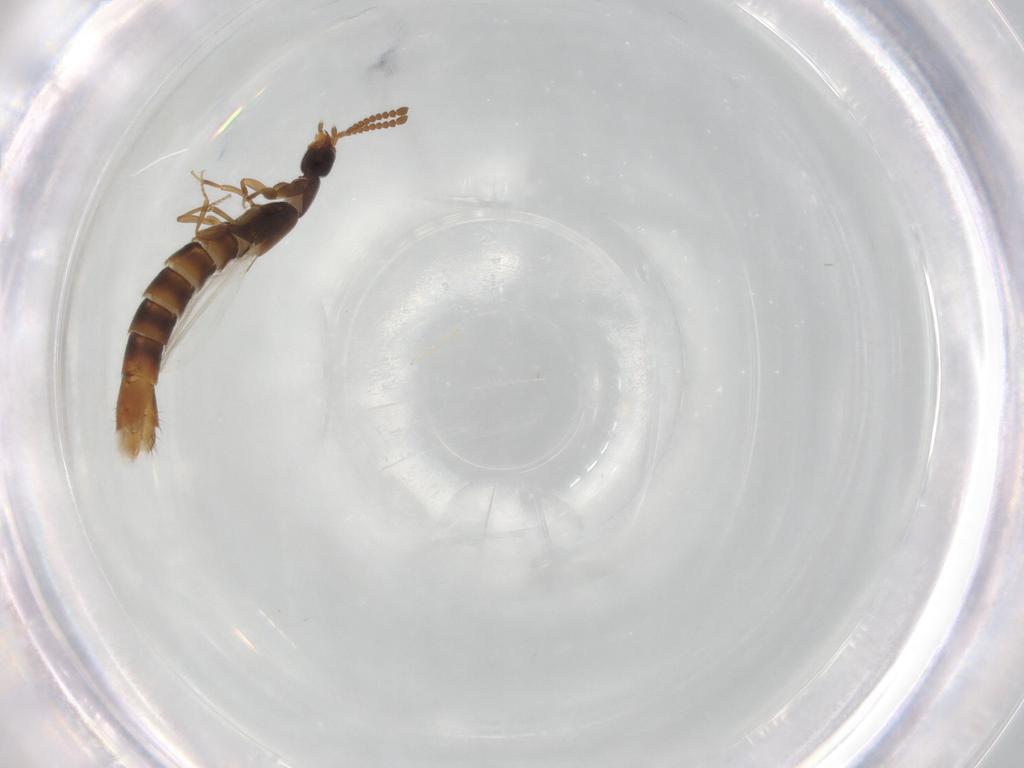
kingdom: Animalia
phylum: Arthropoda
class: Insecta
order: Coleoptera
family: Staphylinidae
